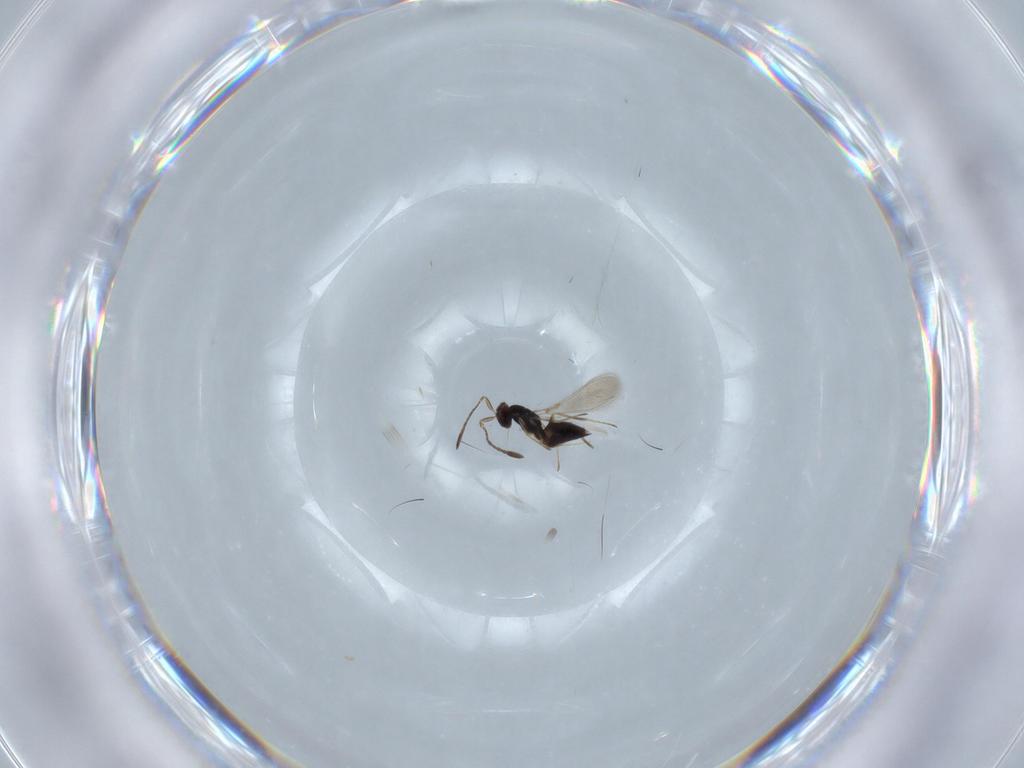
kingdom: Animalia
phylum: Arthropoda
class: Insecta
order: Hymenoptera
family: Mymaridae
